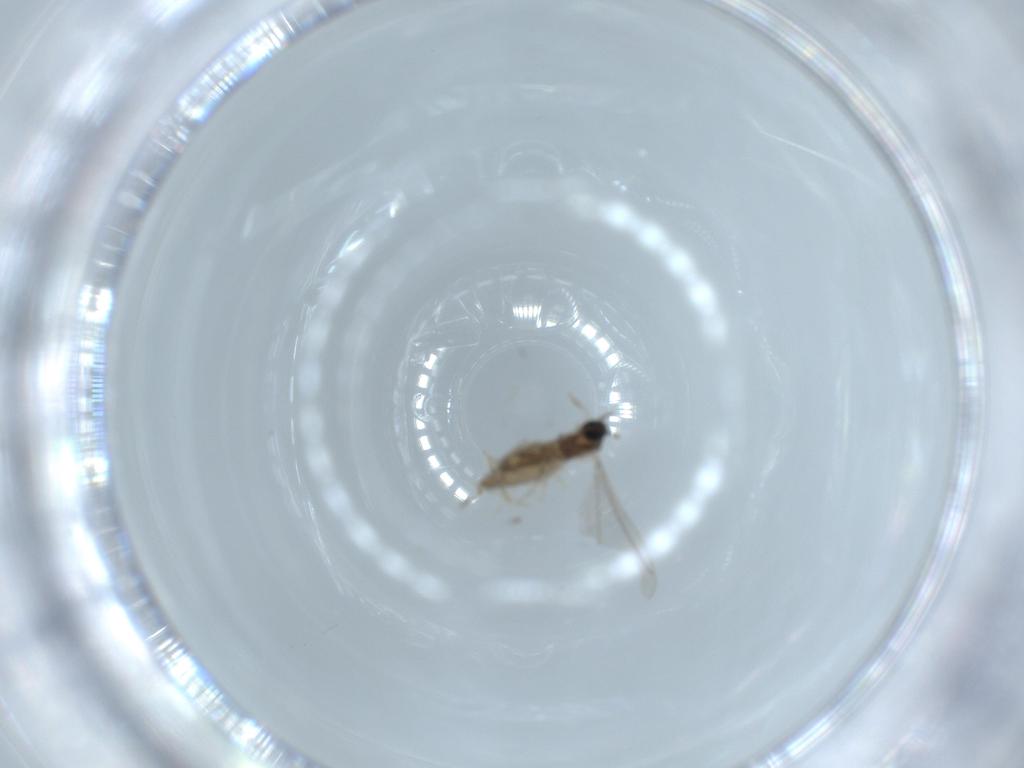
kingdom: Animalia
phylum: Arthropoda
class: Insecta
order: Diptera
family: Cecidomyiidae
